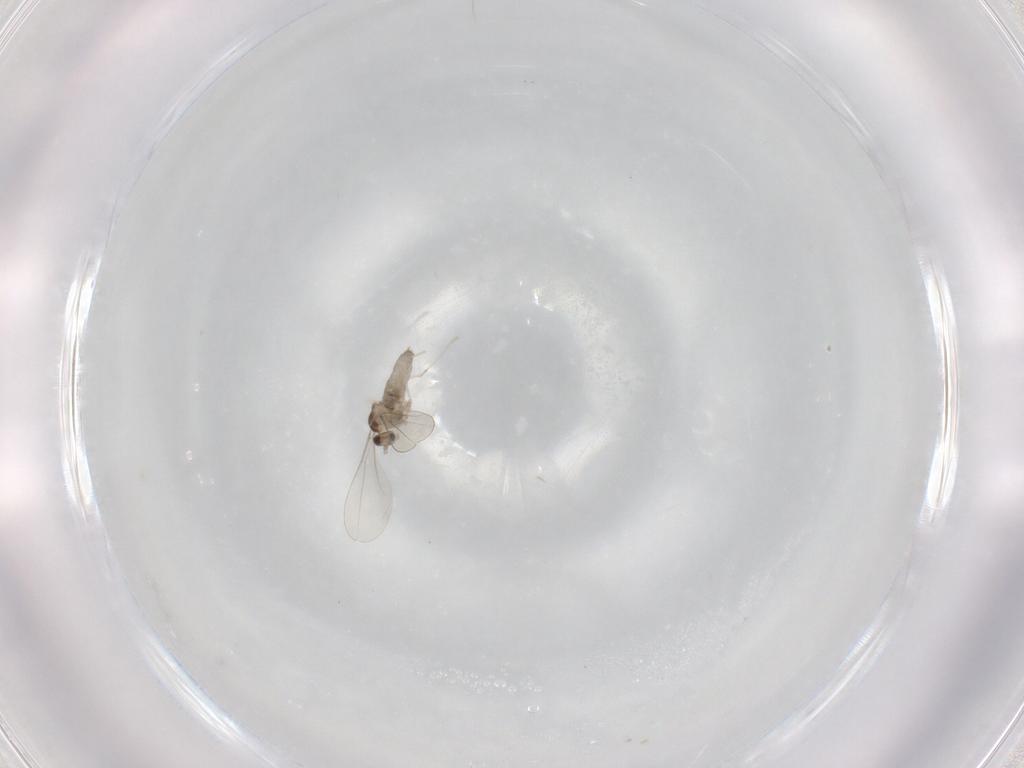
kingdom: Animalia
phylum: Arthropoda
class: Insecta
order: Diptera
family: Cecidomyiidae
